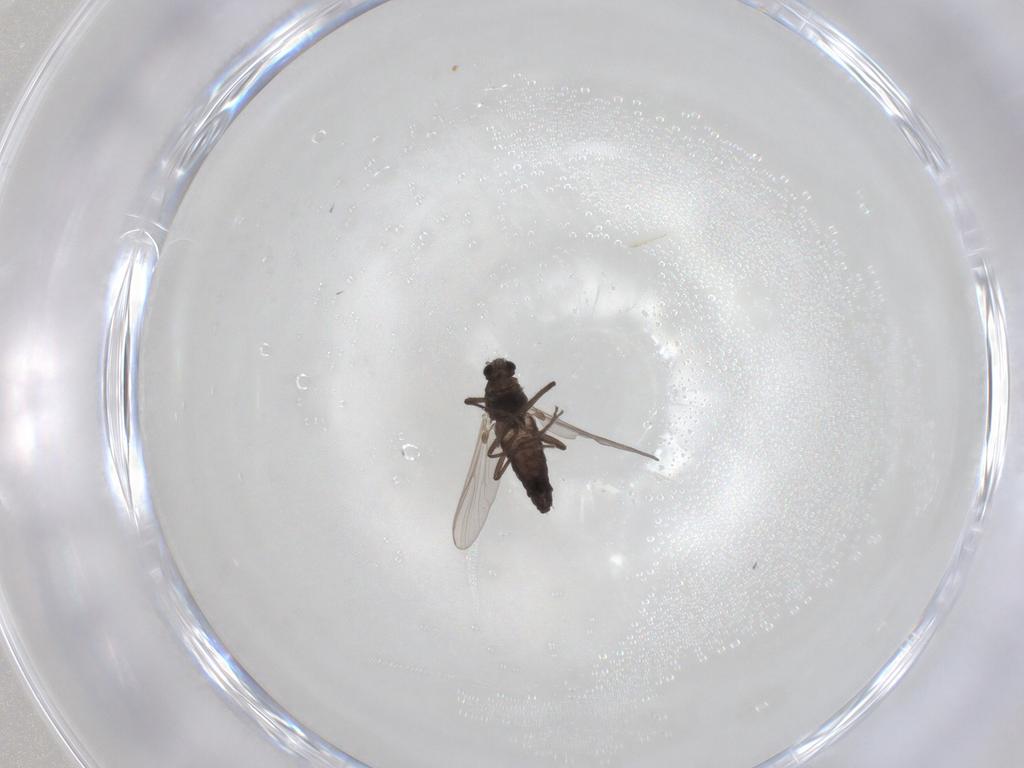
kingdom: Animalia
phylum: Arthropoda
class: Insecta
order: Diptera
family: Chironomidae
